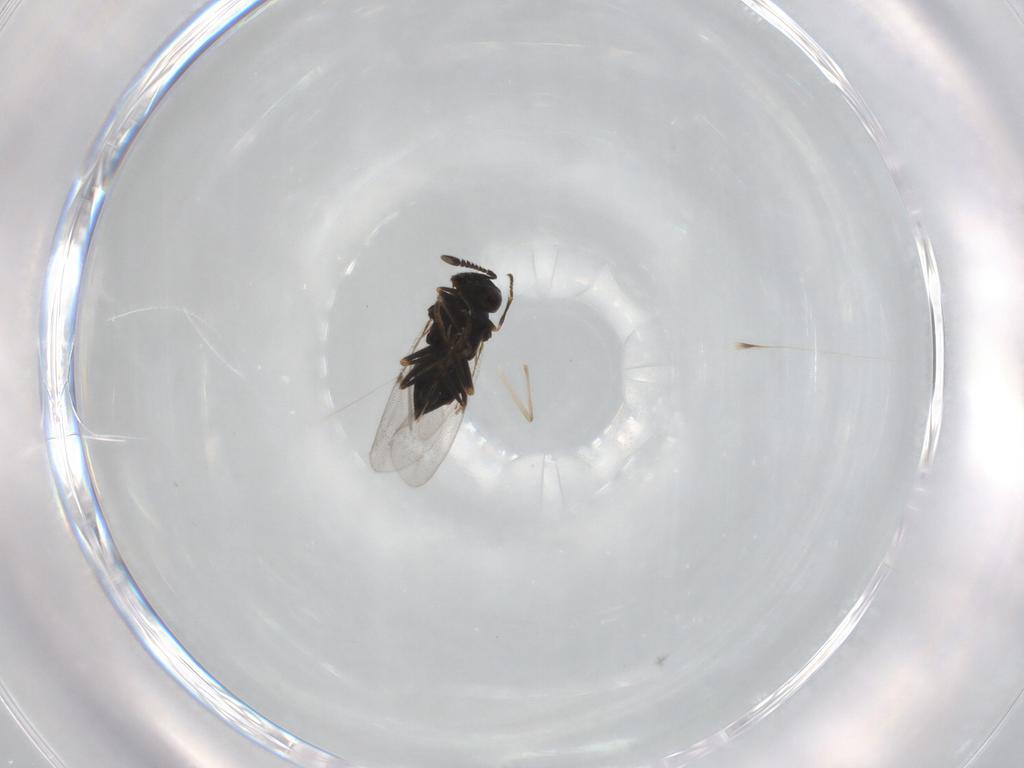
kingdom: Animalia
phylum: Arthropoda
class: Insecta
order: Hymenoptera
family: Encyrtidae
